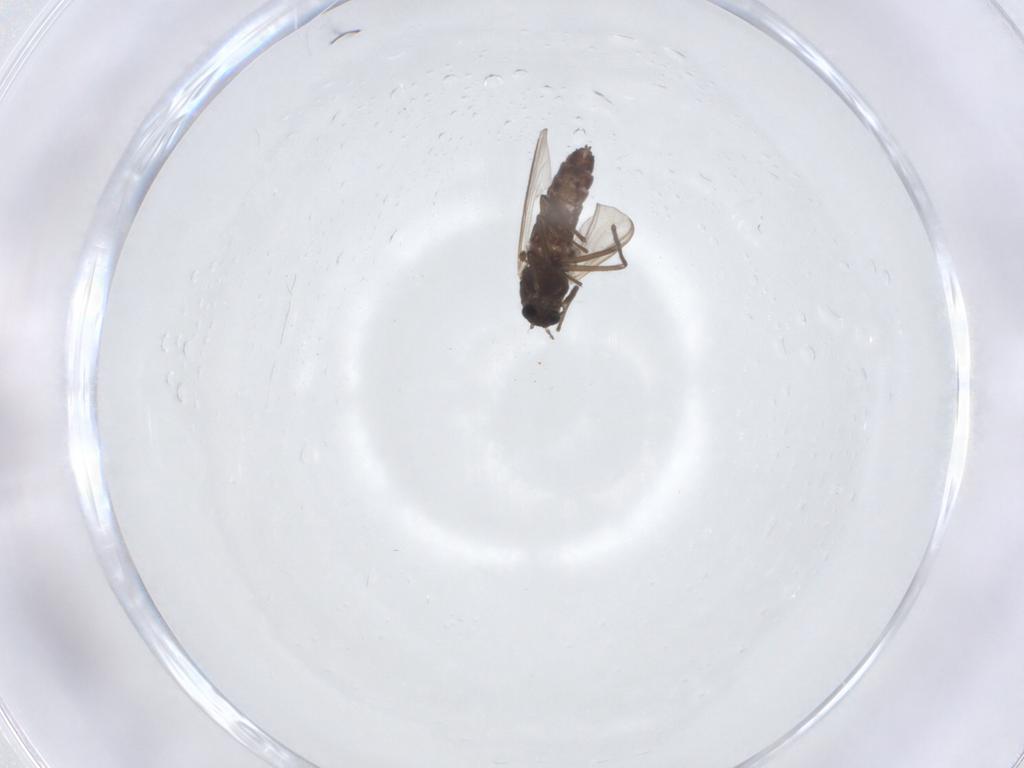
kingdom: Animalia
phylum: Arthropoda
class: Insecta
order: Diptera
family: Chironomidae
